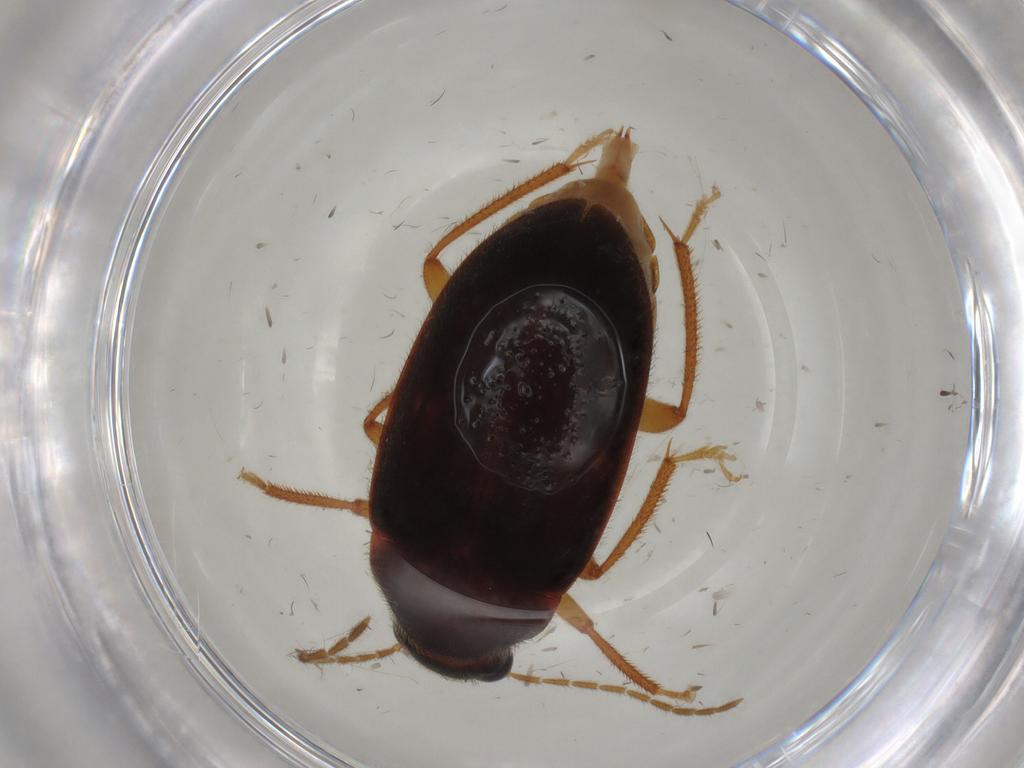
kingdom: Animalia
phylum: Arthropoda
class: Insecta
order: Coleoptera
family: Ptilodactylidae
